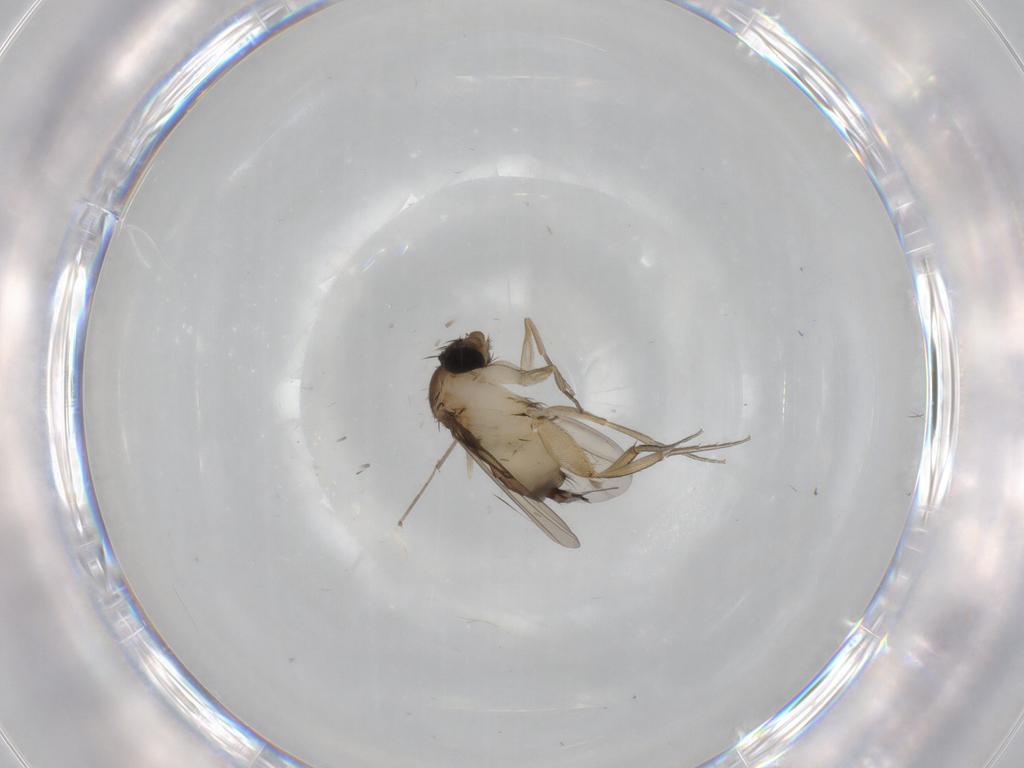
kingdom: Animalia
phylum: Arthropoda
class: Insecta
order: Diptera
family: Phoridae
